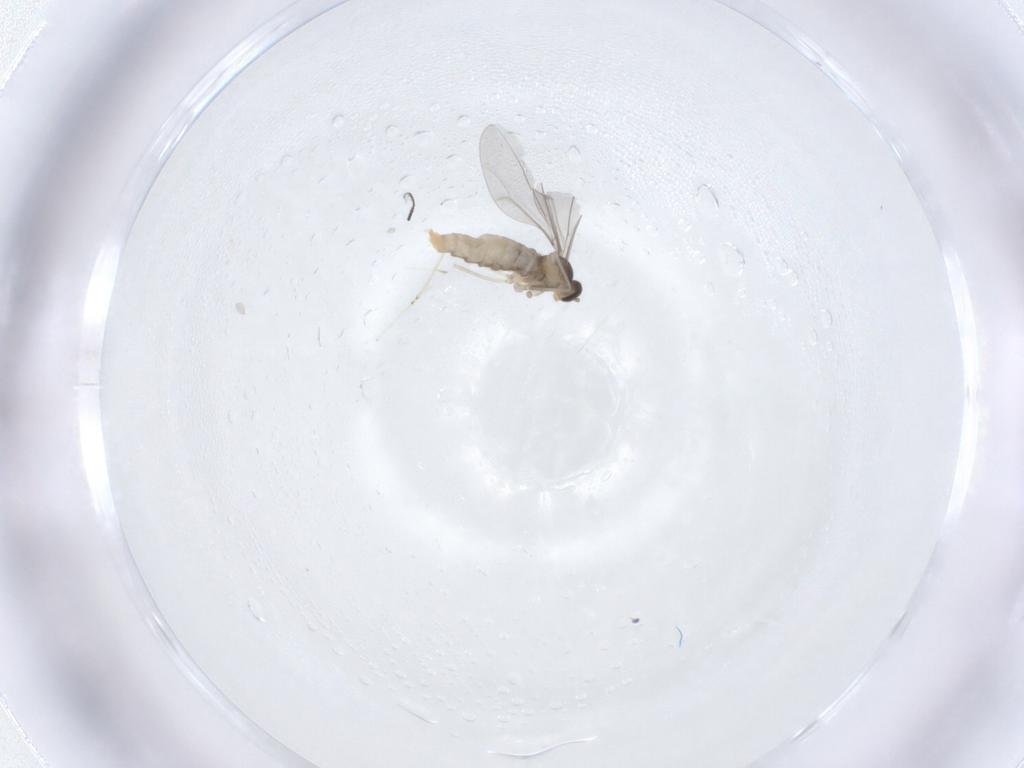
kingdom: Animalia
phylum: Arthropoda
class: Insecta
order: Diptera
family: Cecidomyiidae
